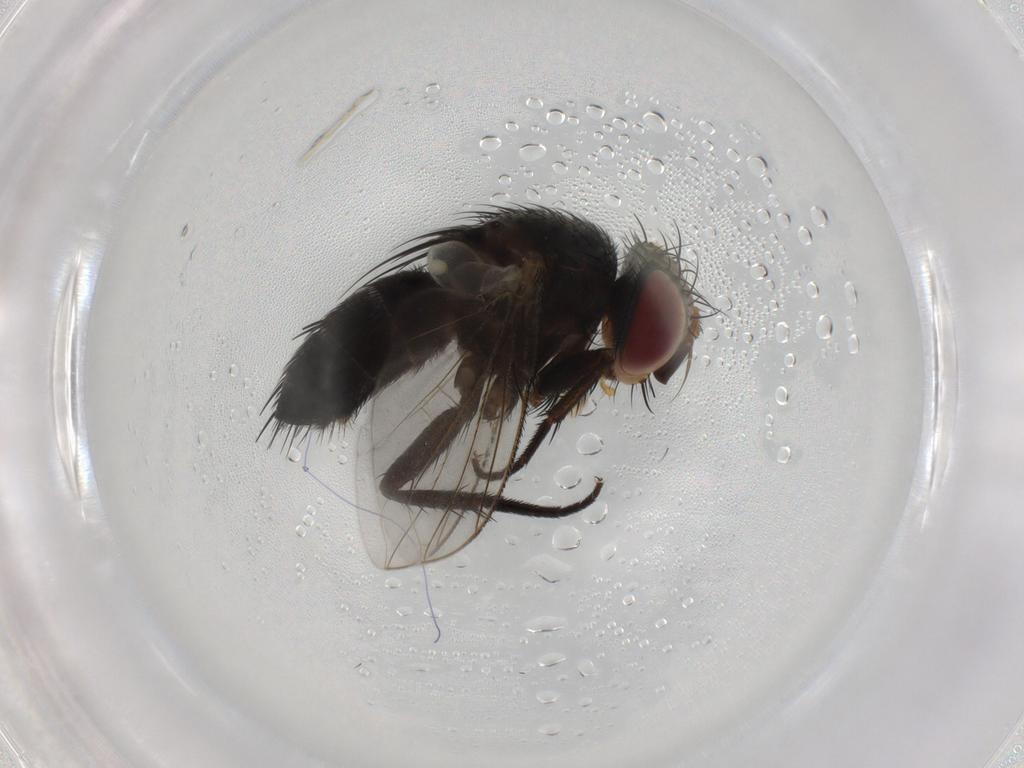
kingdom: Animalia
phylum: Arthropoda
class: Insecta
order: Diptera
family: Tachinidae
